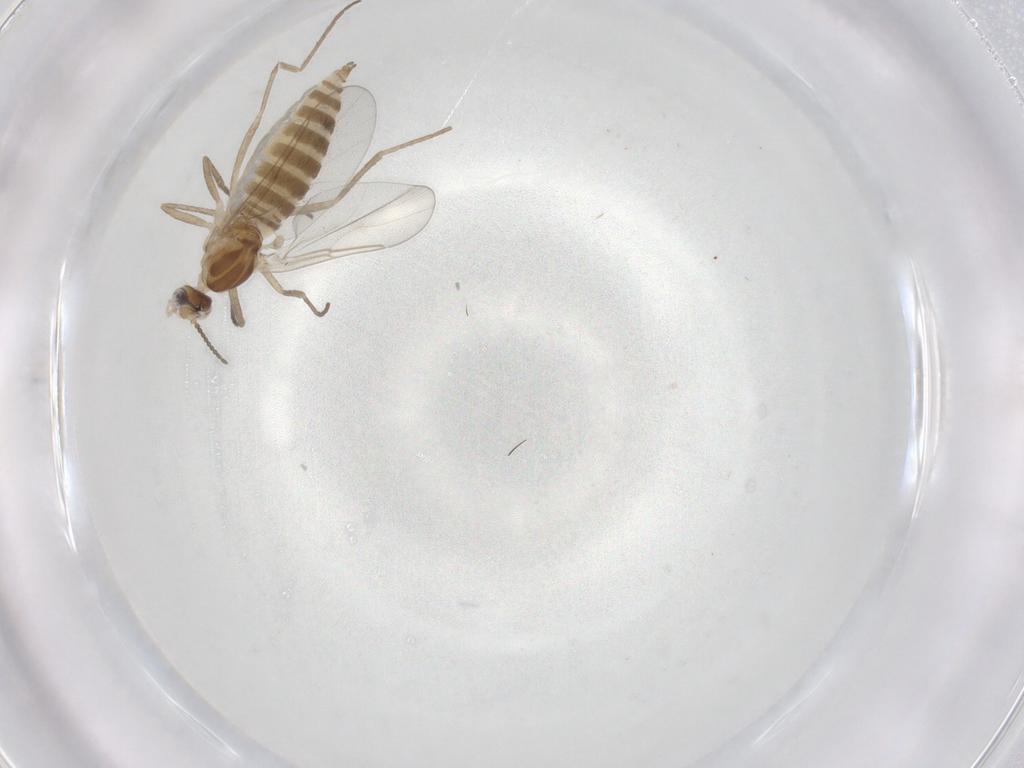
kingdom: Animalia
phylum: Arthropoda
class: Insecta
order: Diptera
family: Cecidomyiidae
